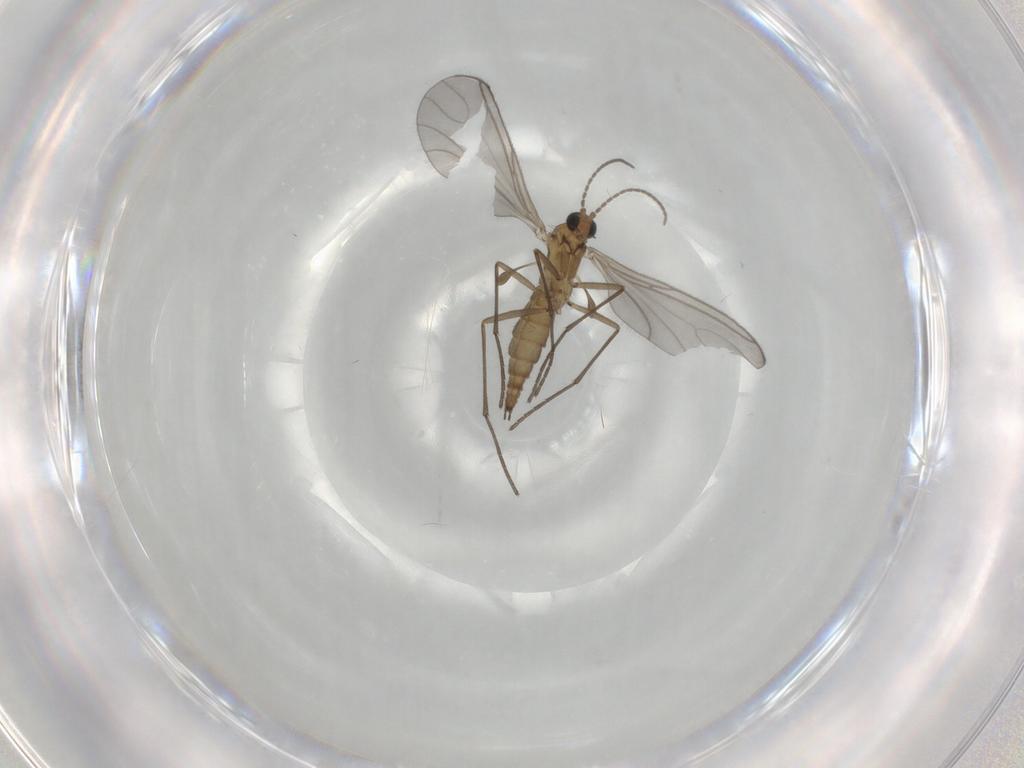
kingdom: Animalia
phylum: Arthropoda
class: Insecta
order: Diptera
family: Sciaridae
